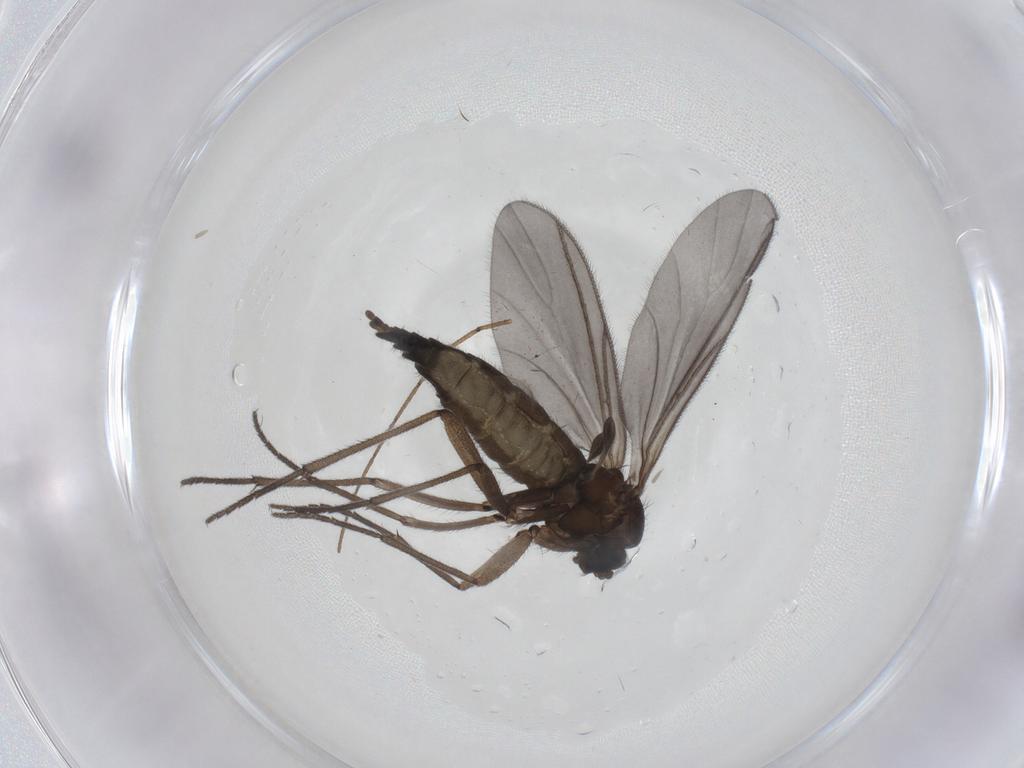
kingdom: Animalia
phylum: Arthropoda
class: Insecta
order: Diptera
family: Limoniidae
